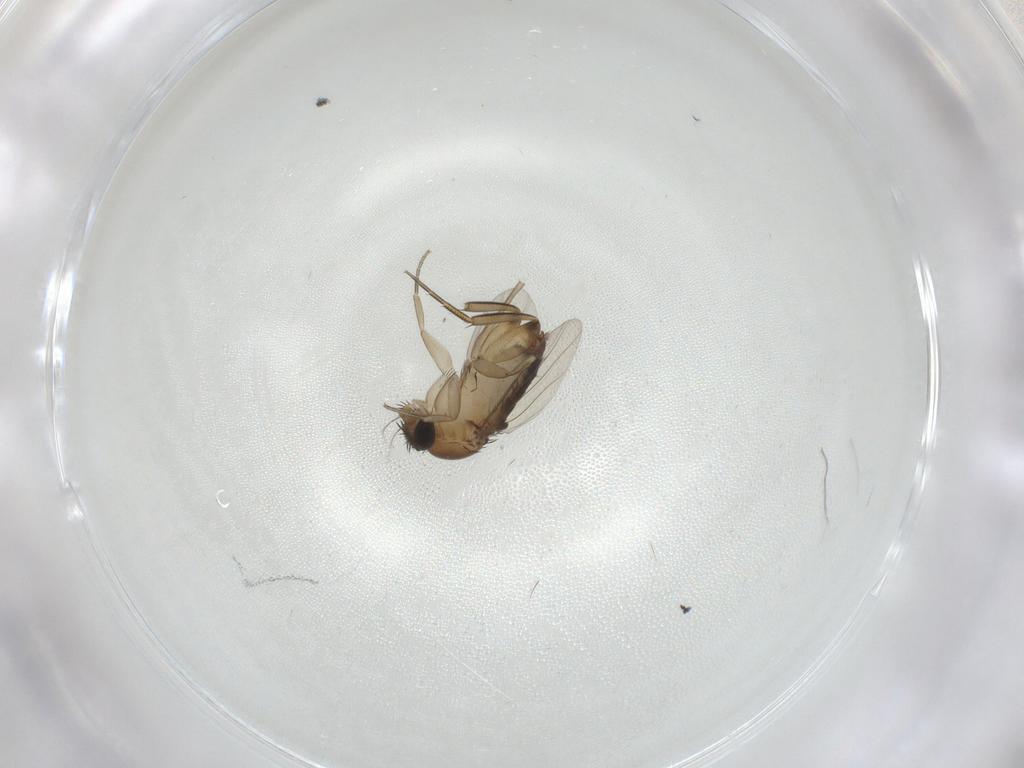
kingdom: Animalia
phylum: Arthropoda
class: Insecta
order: Diptera
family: Phoridae
